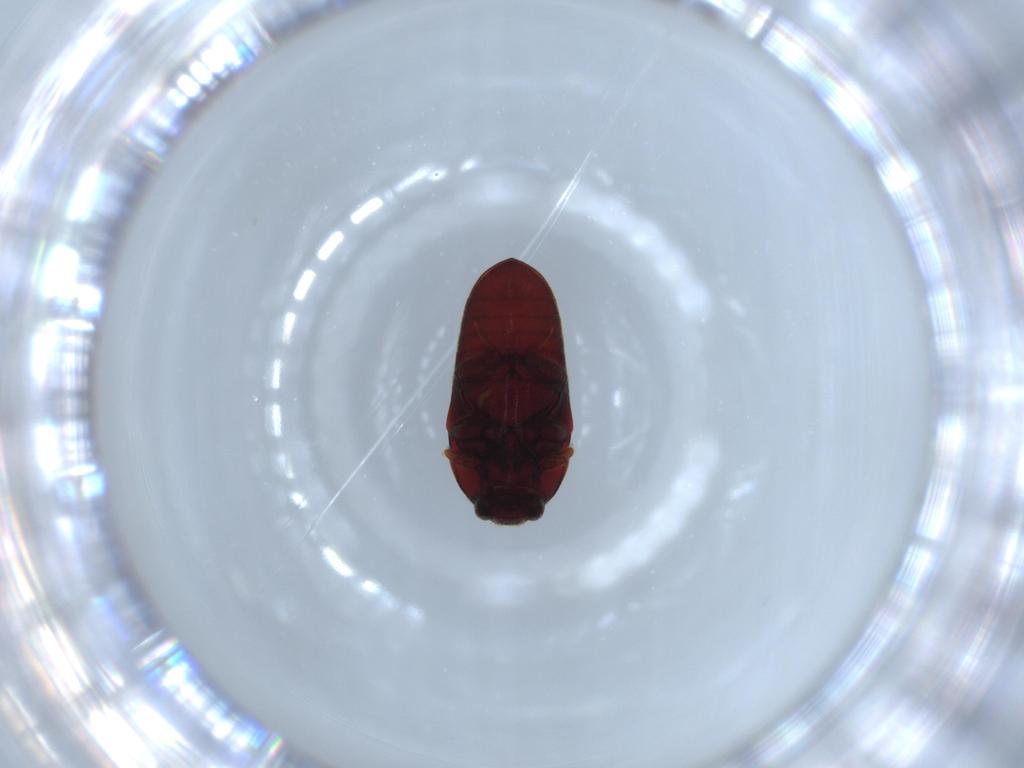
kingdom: Animalia
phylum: Arthropoda
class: Insecta
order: Coleoptera
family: Throscidae
